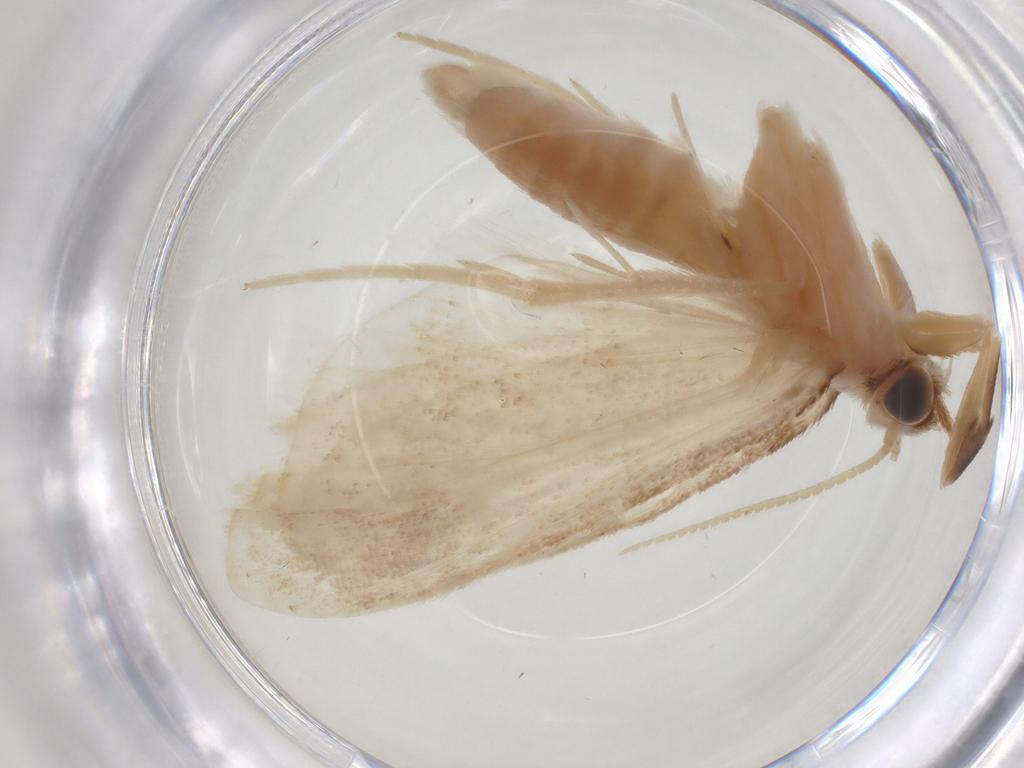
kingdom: Animalia
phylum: Arthropoda
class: Insecta
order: Lepidoptera
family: Crambidae
